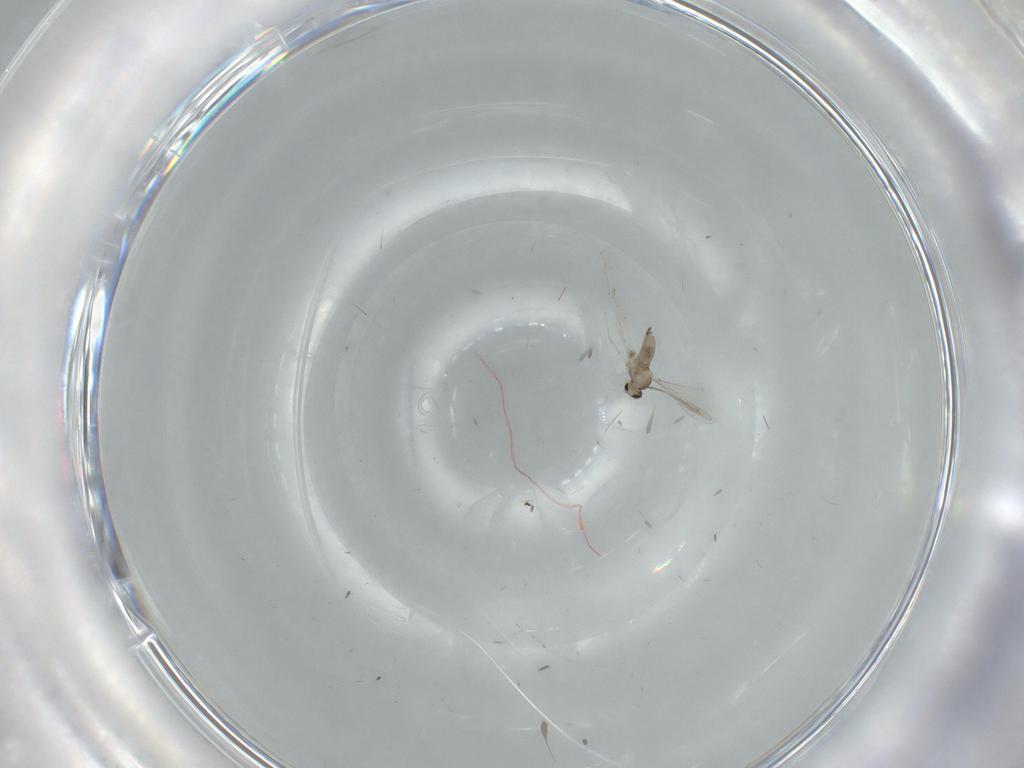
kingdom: Animalia
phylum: Arthropoda
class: Insecta
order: Diptera
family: Cecidomyiidae
